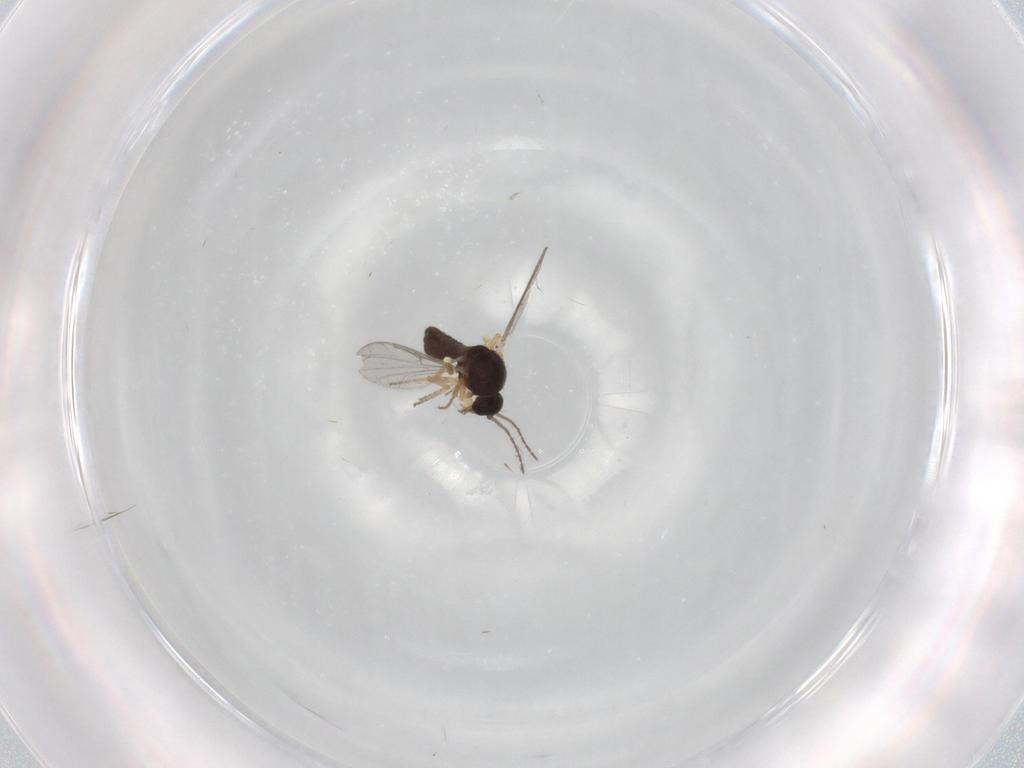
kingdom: Animalia
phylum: Arthropoda
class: Insecta
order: Diptera
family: Ceratopogonidae
